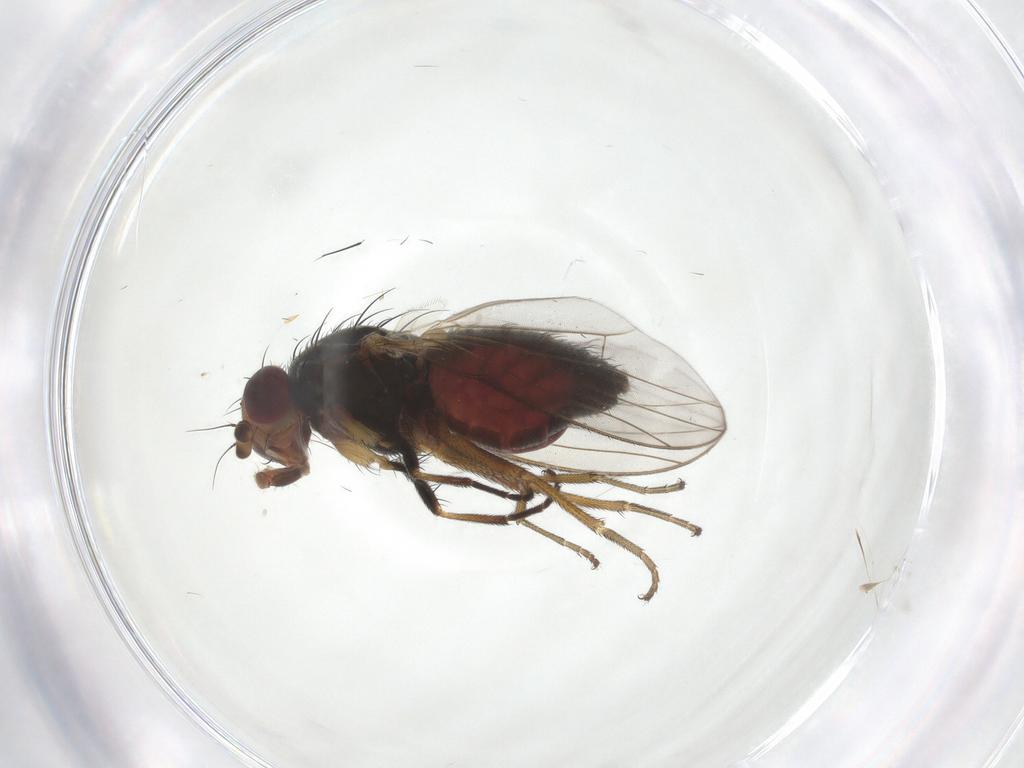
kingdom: Animalia
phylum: Arthropoda
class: Insecta
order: Diptera
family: Heleomyzidae
